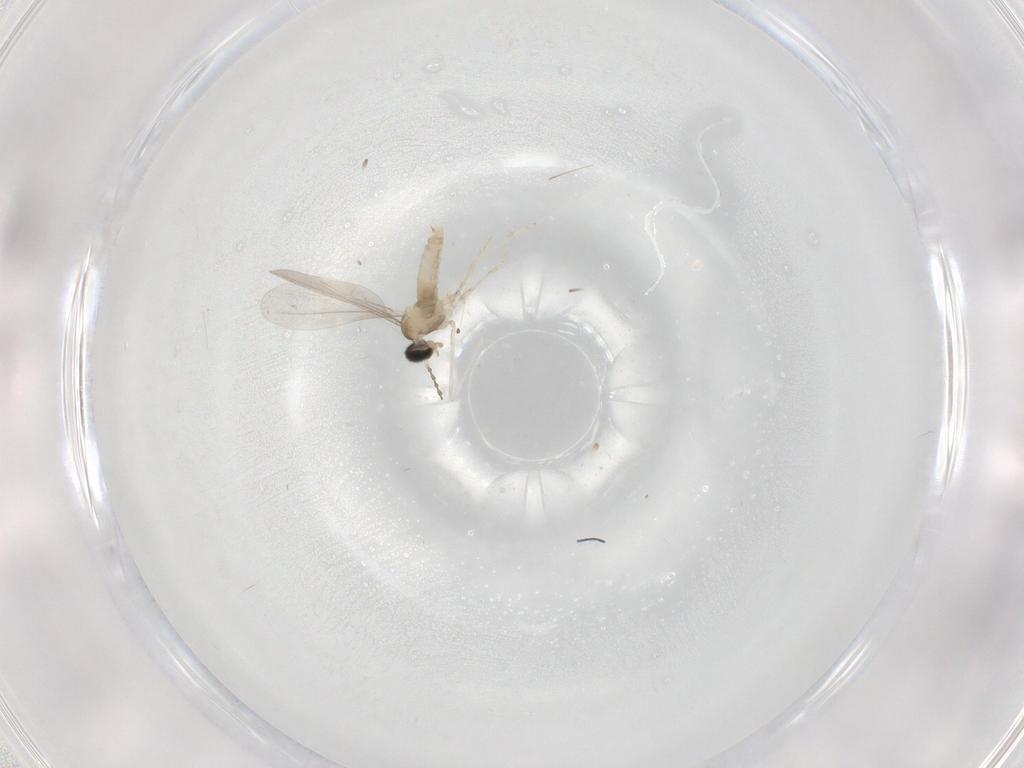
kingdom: Animalia
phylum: Arthropoda
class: Insecta
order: Diptera
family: Cecidomyiidae
